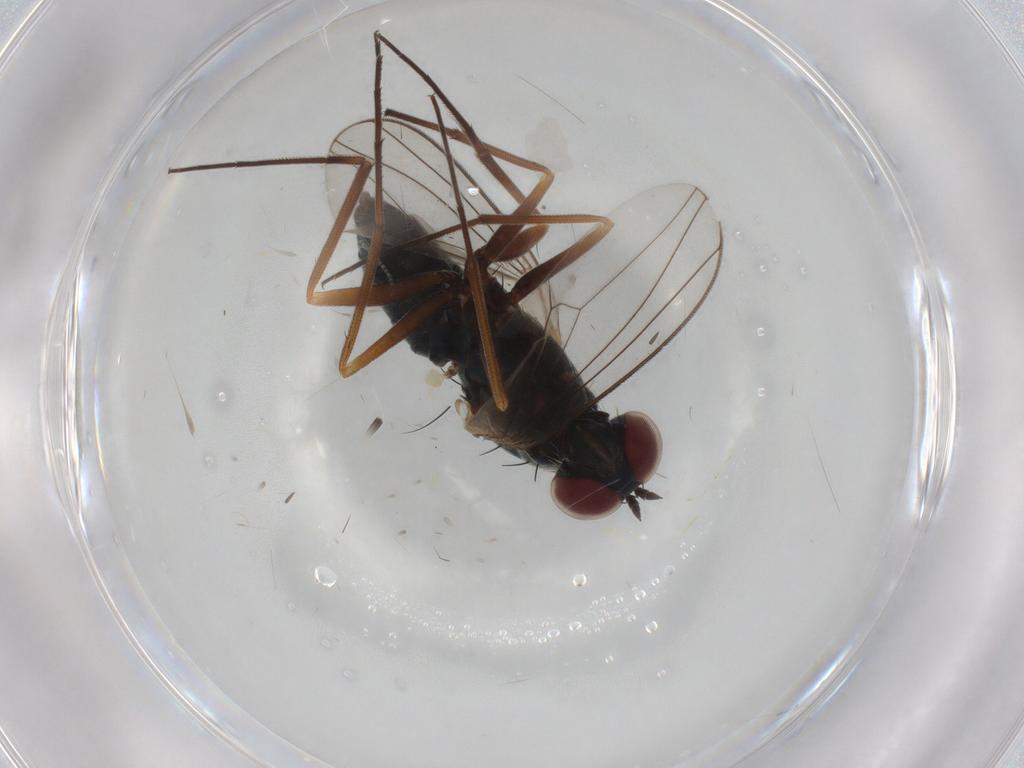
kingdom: Animalia
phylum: Arthropoda
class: Insecta
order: Diptera
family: Dolichopodidae
